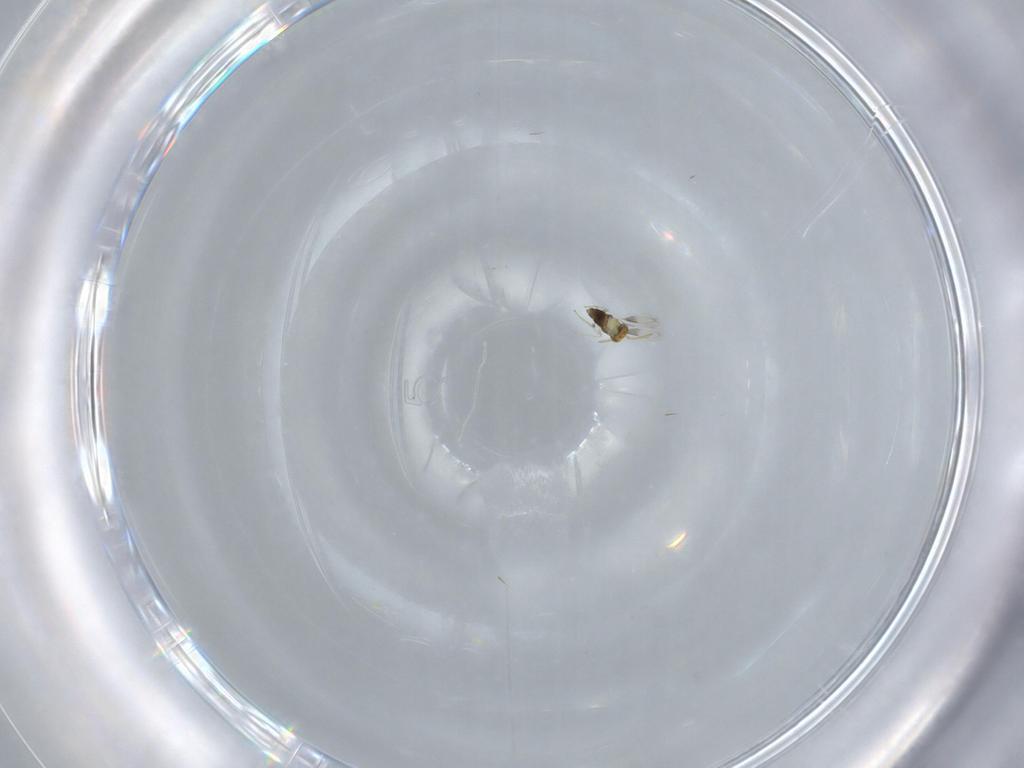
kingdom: Animalia
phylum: Arthropoda
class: Insecta
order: Hymenoptera
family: Aphelinidae
